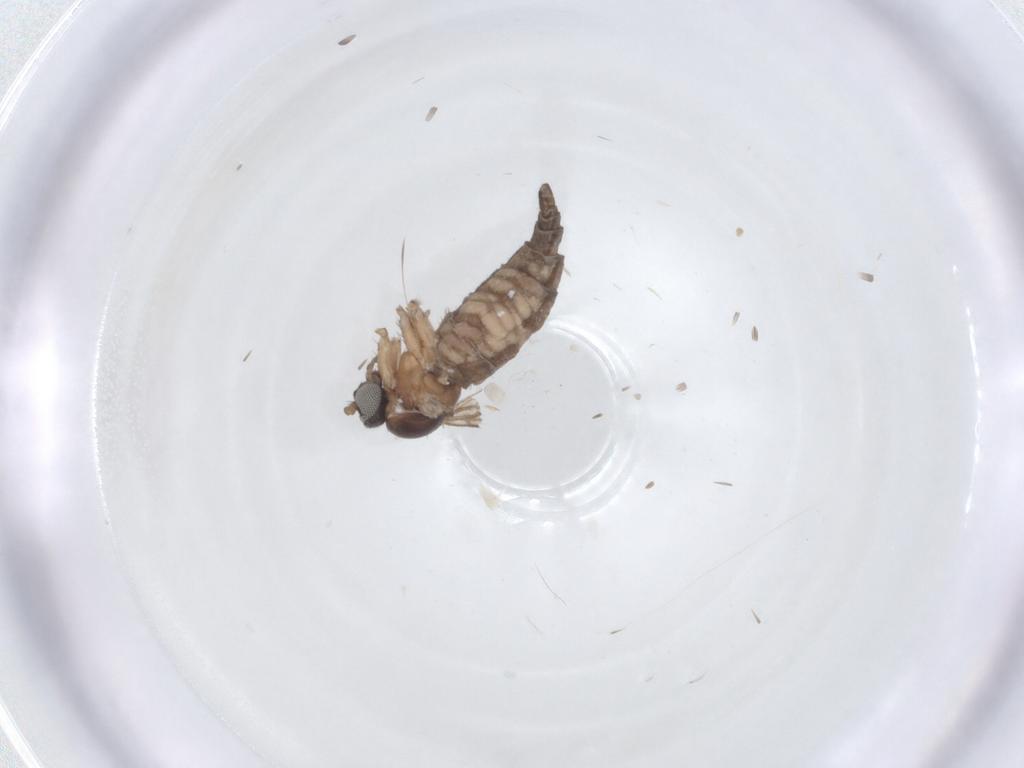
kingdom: Animalia
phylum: Arthropoda
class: Insecta
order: Diptera
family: Sciaridae
